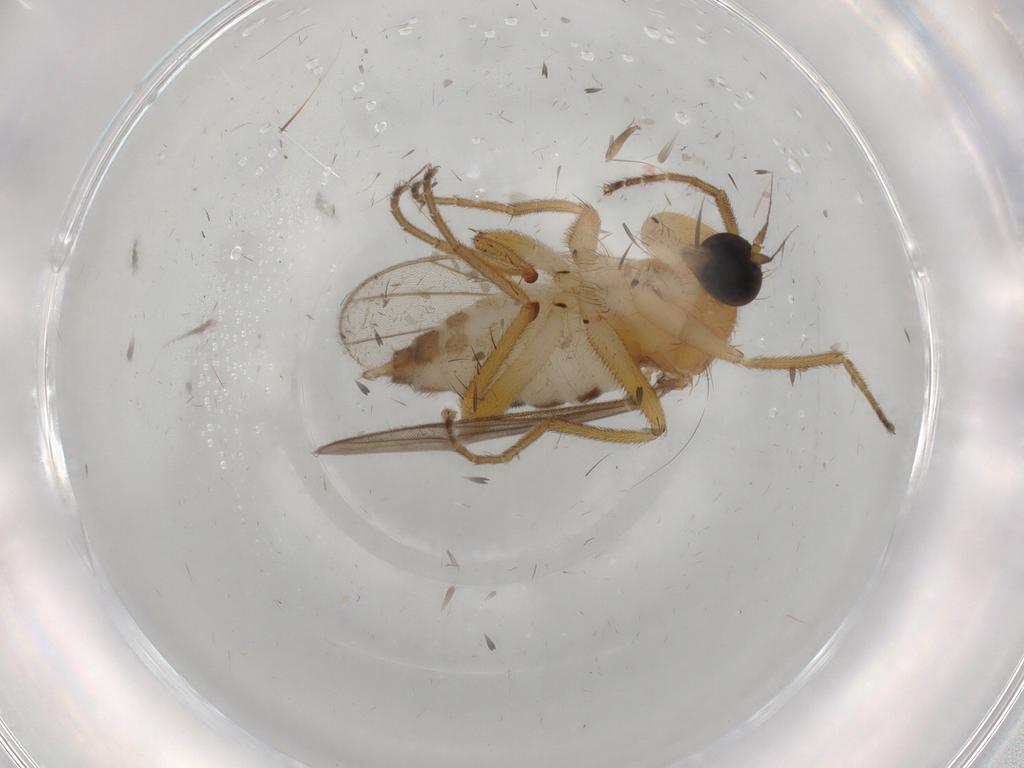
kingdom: Animalia
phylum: Arthropoda
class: Insecta
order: Diptera
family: Hybotidae
